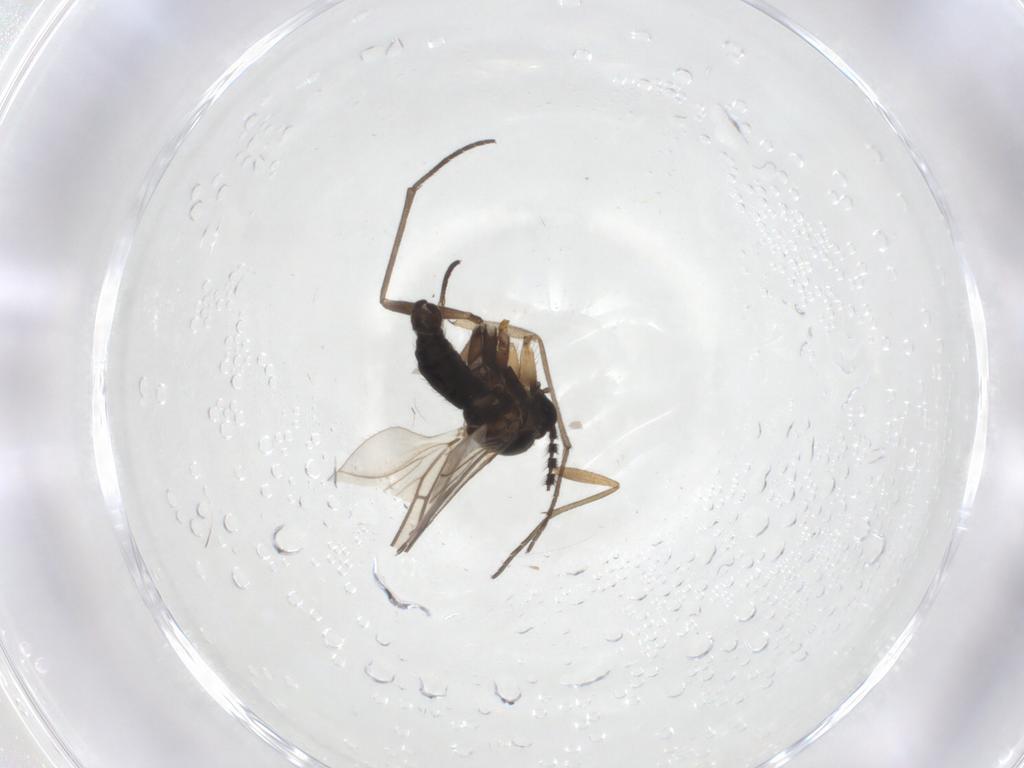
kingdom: Animalia
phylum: Arthropoda
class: Insecta
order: Diptera
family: Sciaridae
